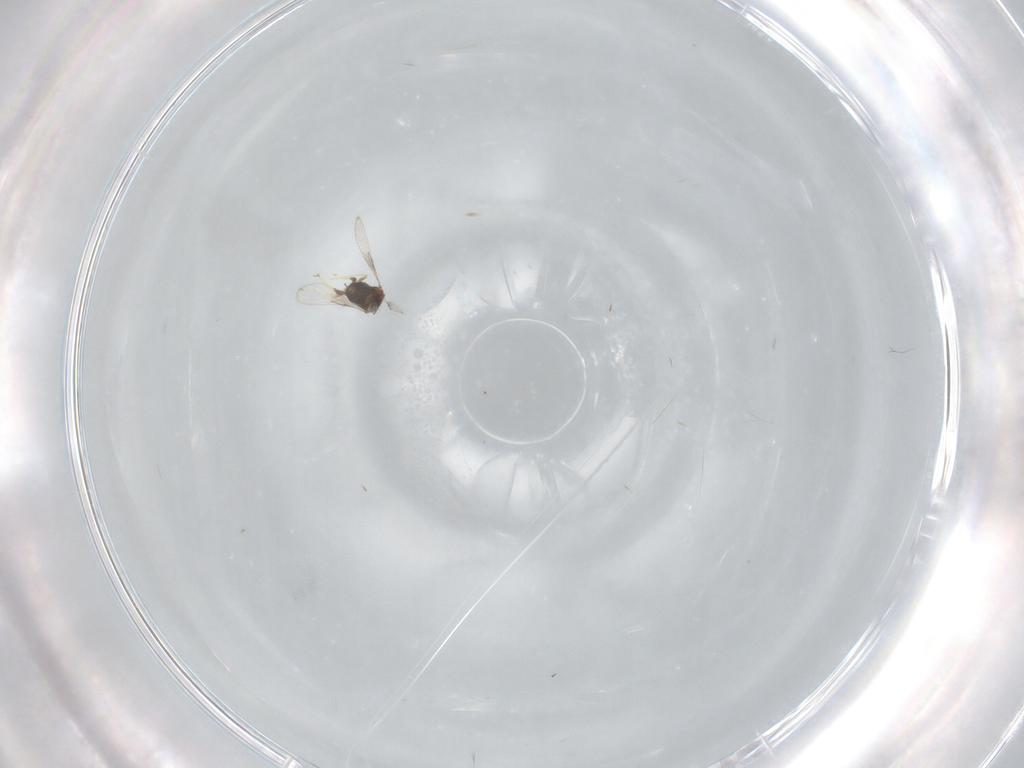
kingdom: Animalia
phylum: Arthropoda
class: Insecta
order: Hymenoptera
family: Trichogrammatidae
